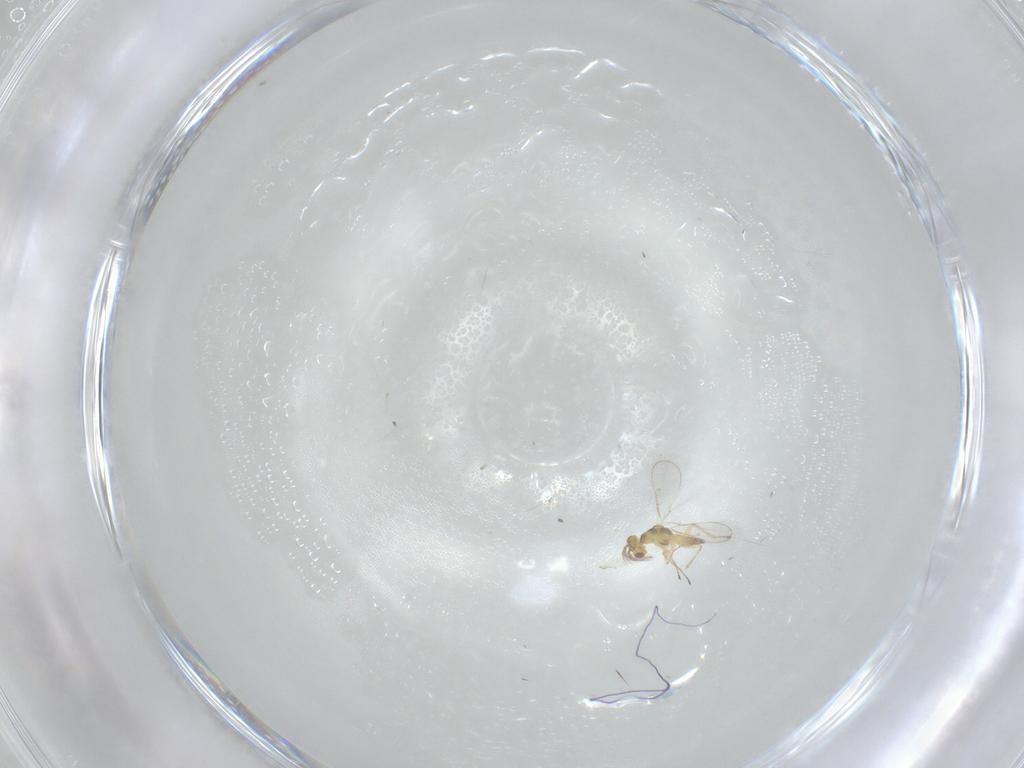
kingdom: Animalia
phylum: Arthropoda
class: Insecta
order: Hymenoptera
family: Eulophidae
